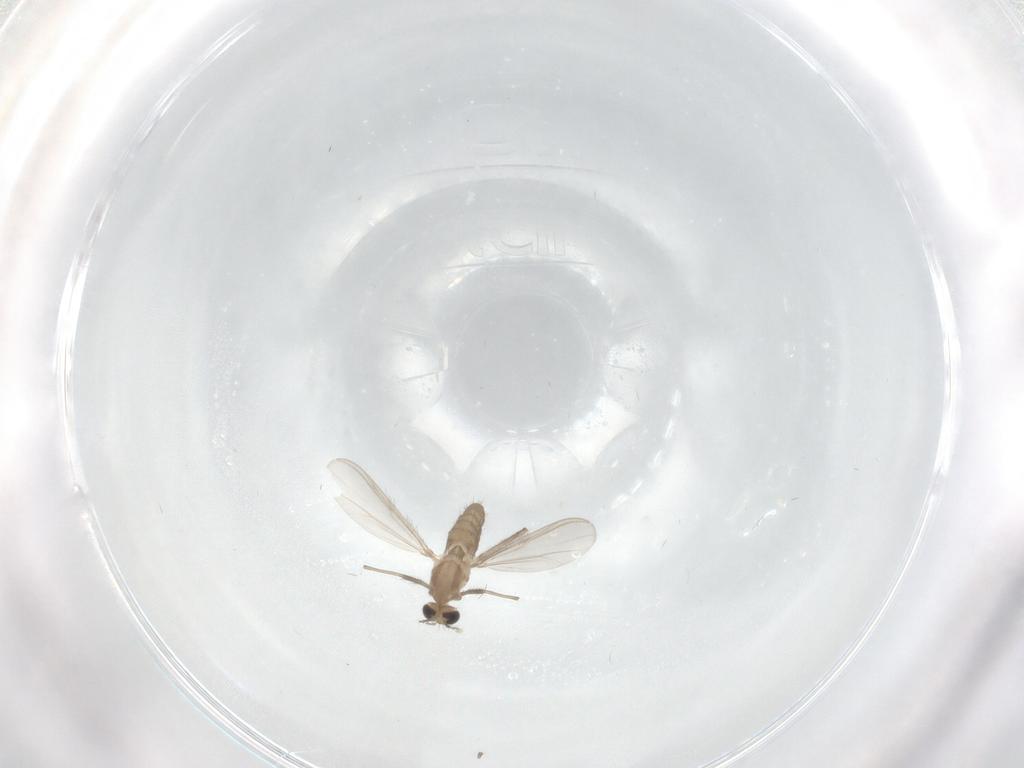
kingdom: Animalia
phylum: Arthropoda
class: Insecta
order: Diptera
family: Chironomidae
